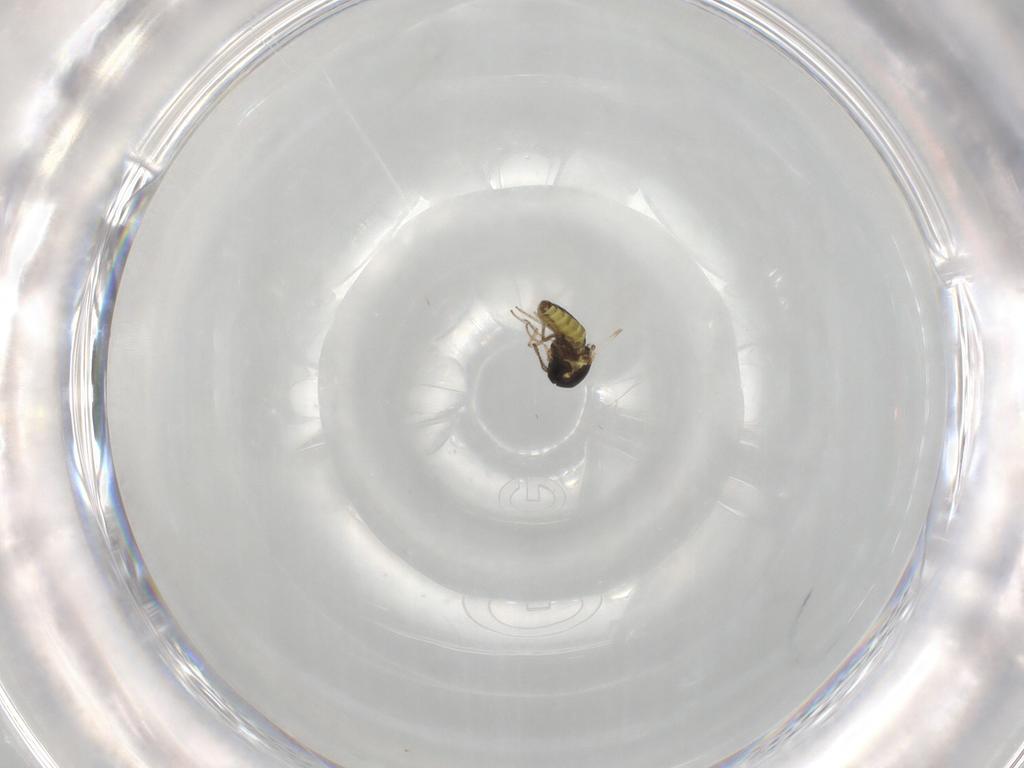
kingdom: Animalia
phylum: Arthropoda
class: Insecta
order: Diptera
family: Ceratopogonidae
